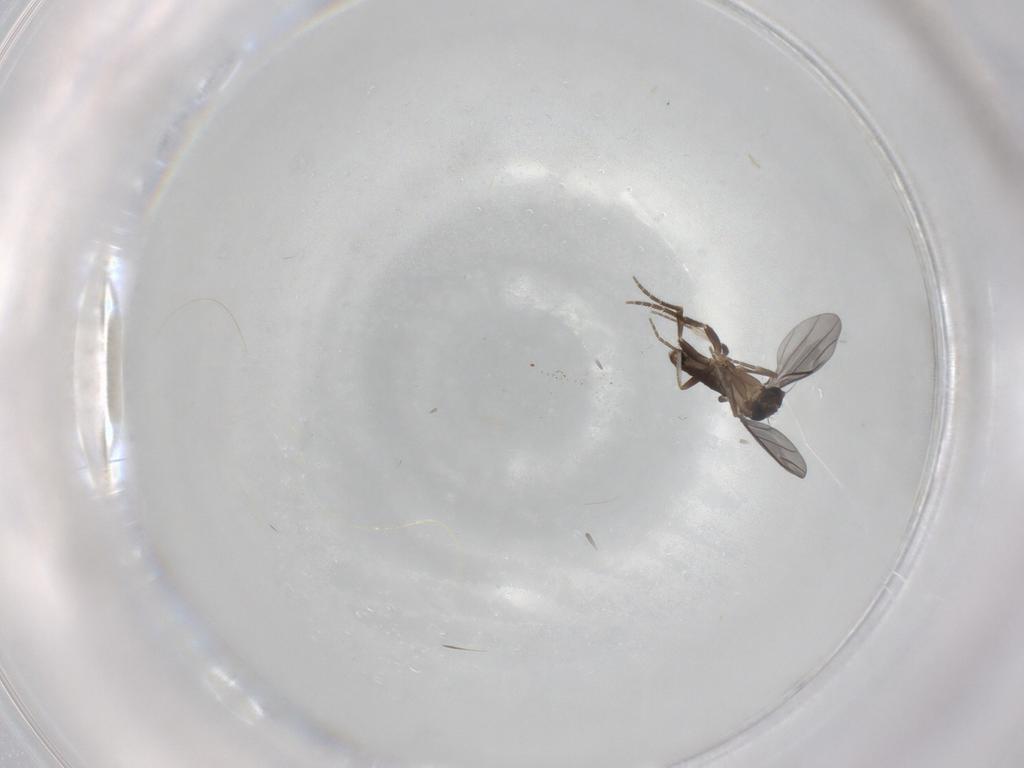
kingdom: Animalia
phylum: Arthropoda
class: Insecta
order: Diptera
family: Phoridae
